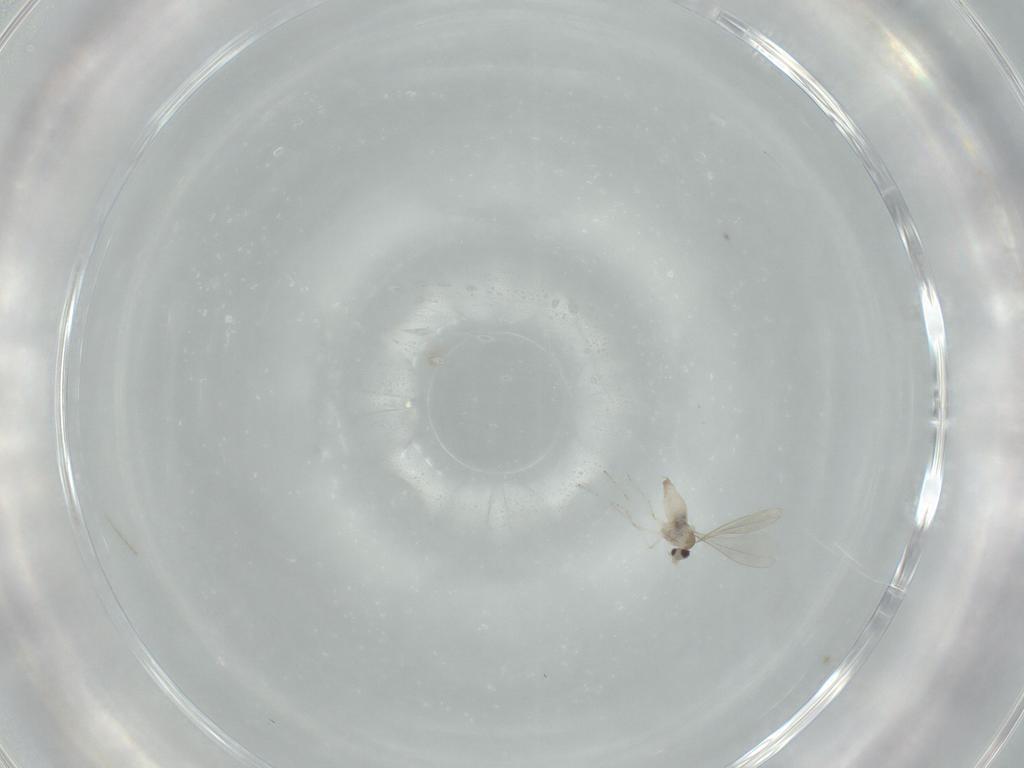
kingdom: Animalia
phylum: Arthropoda
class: Insecta
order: Diptera
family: Cecidomyiidae
